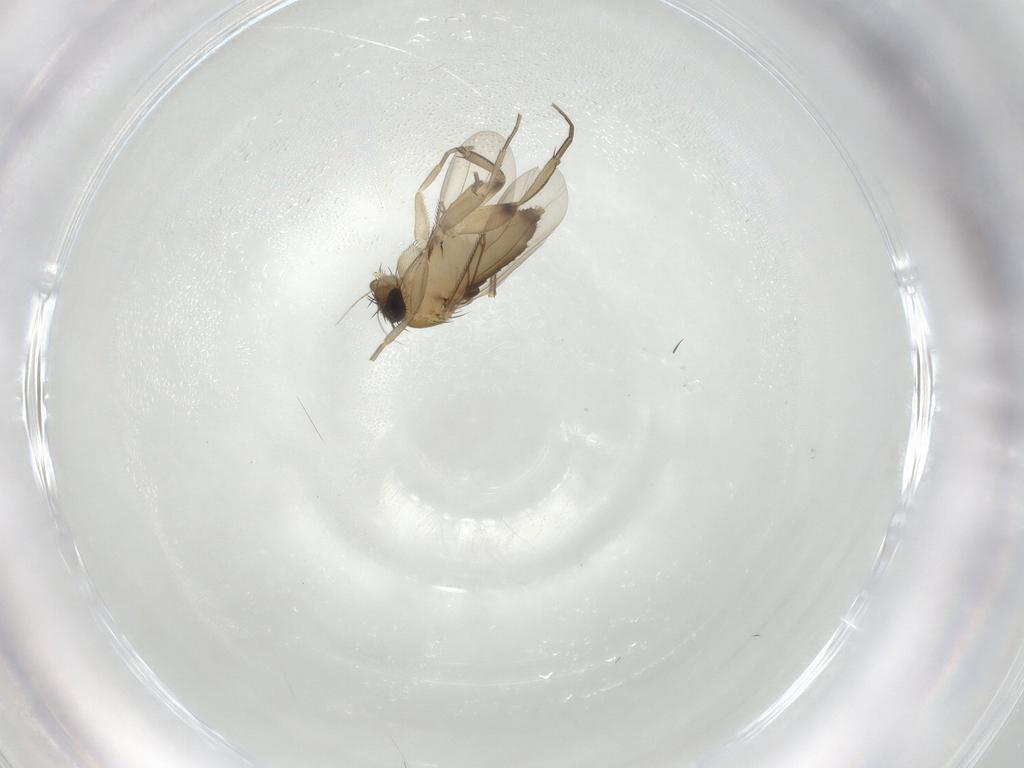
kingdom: Animalia
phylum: Arthropoda
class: Insecta
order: Diptera
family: Phoridae
